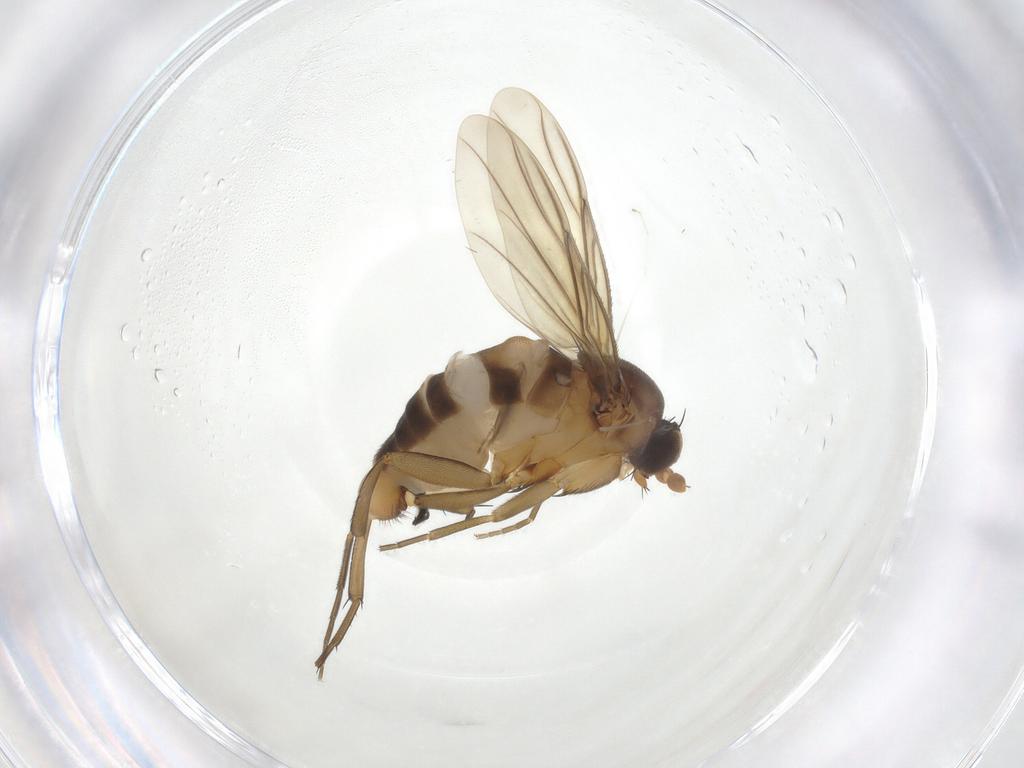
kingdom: Animalia
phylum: Arthropoda
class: Insecta
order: Diptera
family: Phoridae
